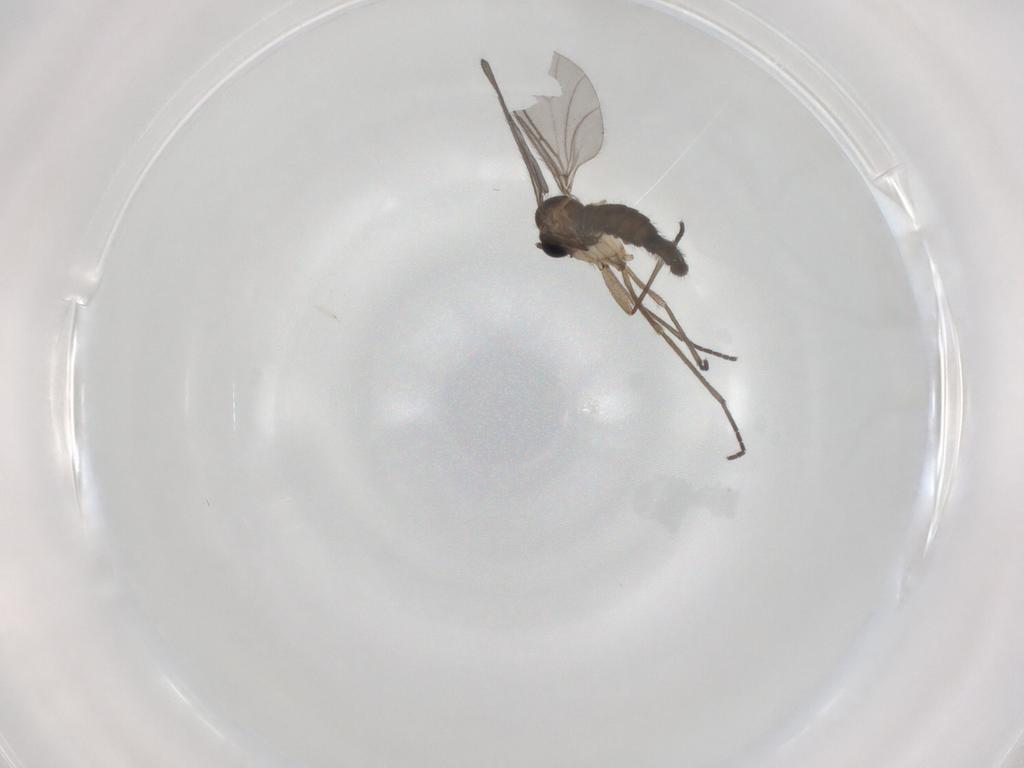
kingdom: Animalia
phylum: Arthropoda
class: Insecta
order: Diptera
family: Sciaridae
